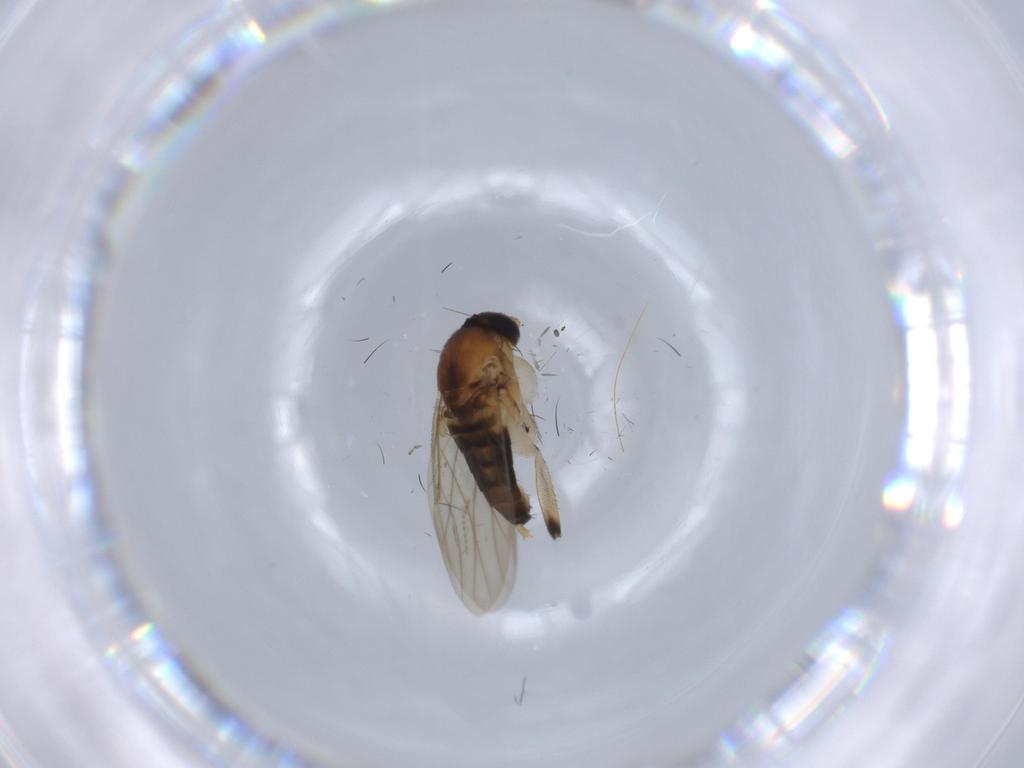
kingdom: Animalia
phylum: Arthropoda
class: Insecta
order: Diptera
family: Phoridae
